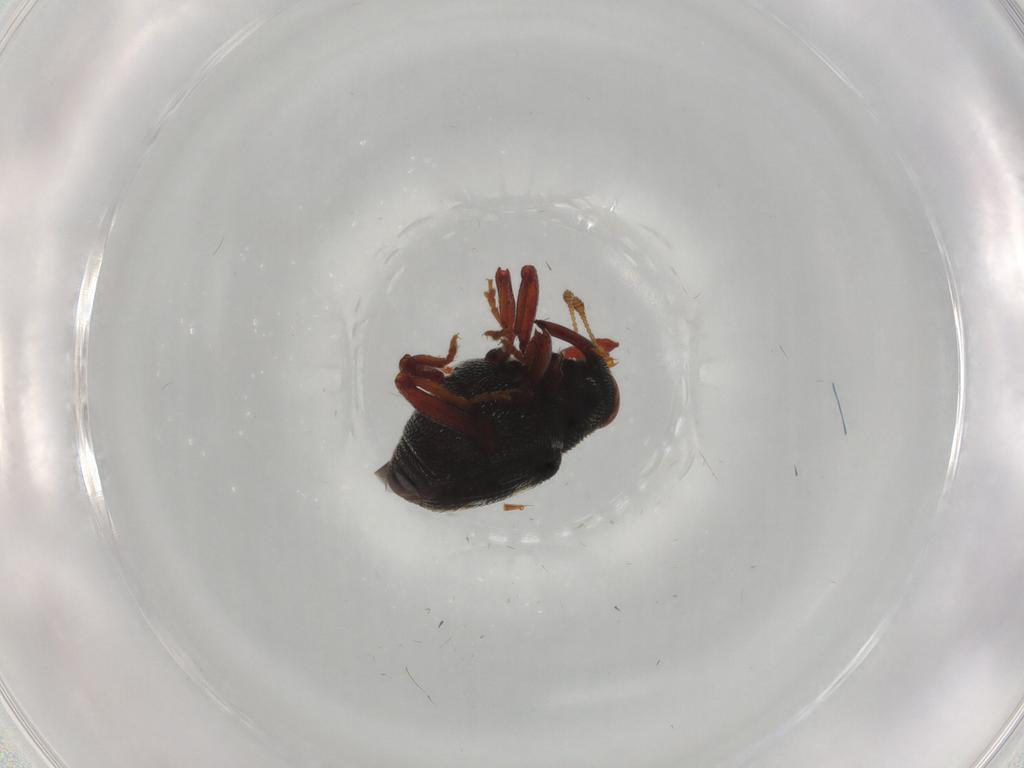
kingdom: Animalia
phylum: Arthropoda
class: Insecta
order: Coleoptera
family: Curculionidae
